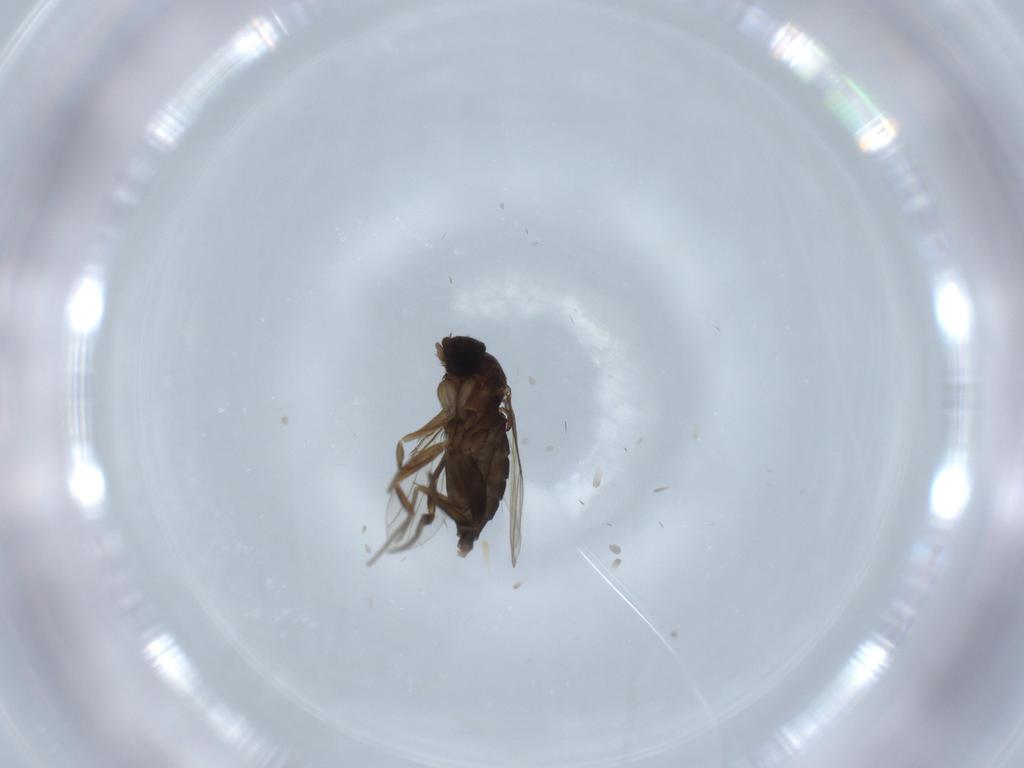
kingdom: Animalia
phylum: Arthropoda
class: Insecta
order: Diptera
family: Phoridae
